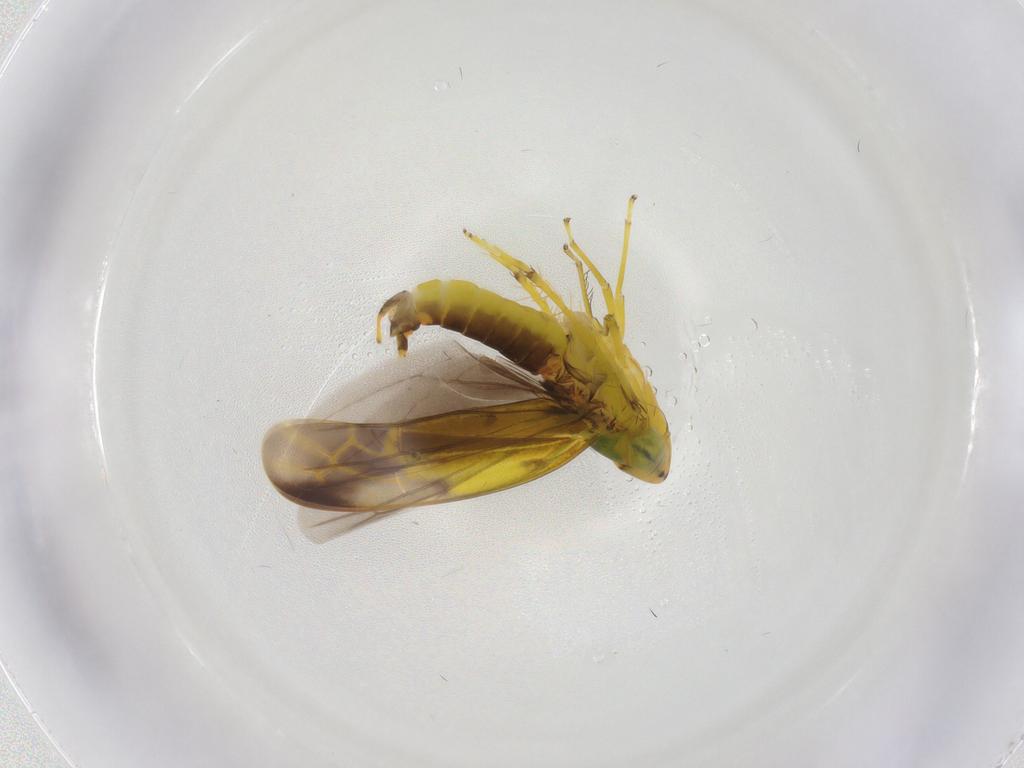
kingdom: Animalia
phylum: Arthropoda
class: Insecta
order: Hemiptera
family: Cicadellidae
